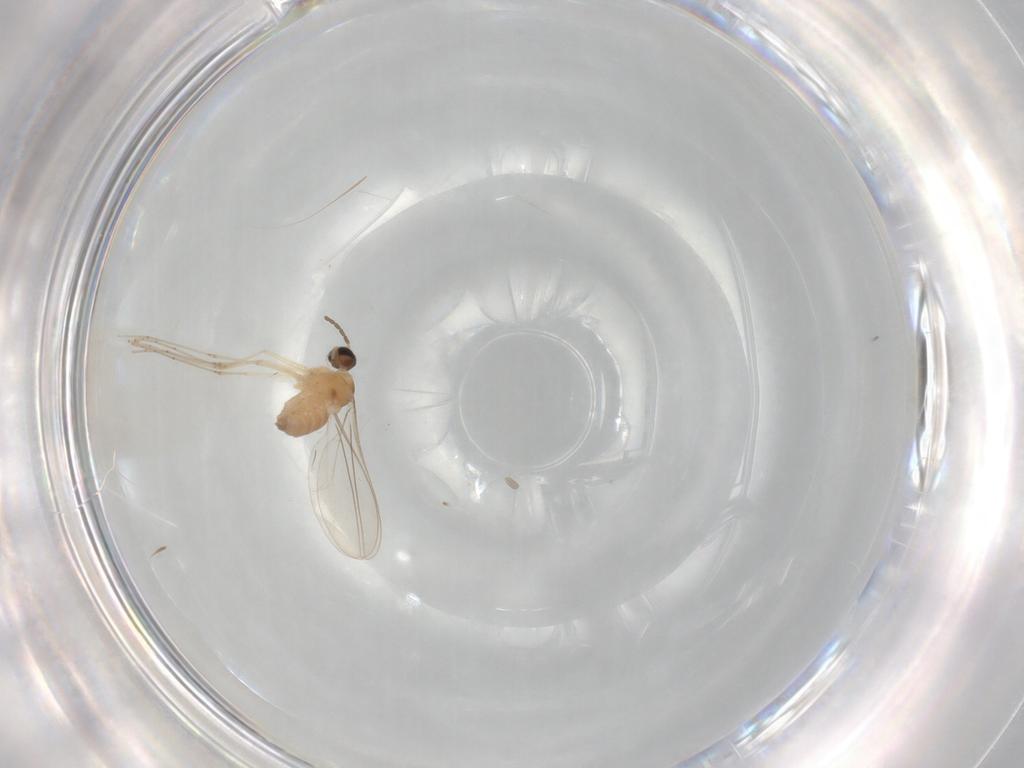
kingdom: Animalia
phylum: Arthropoda
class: Insecta
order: Diptera
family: Cecidomyiidae
